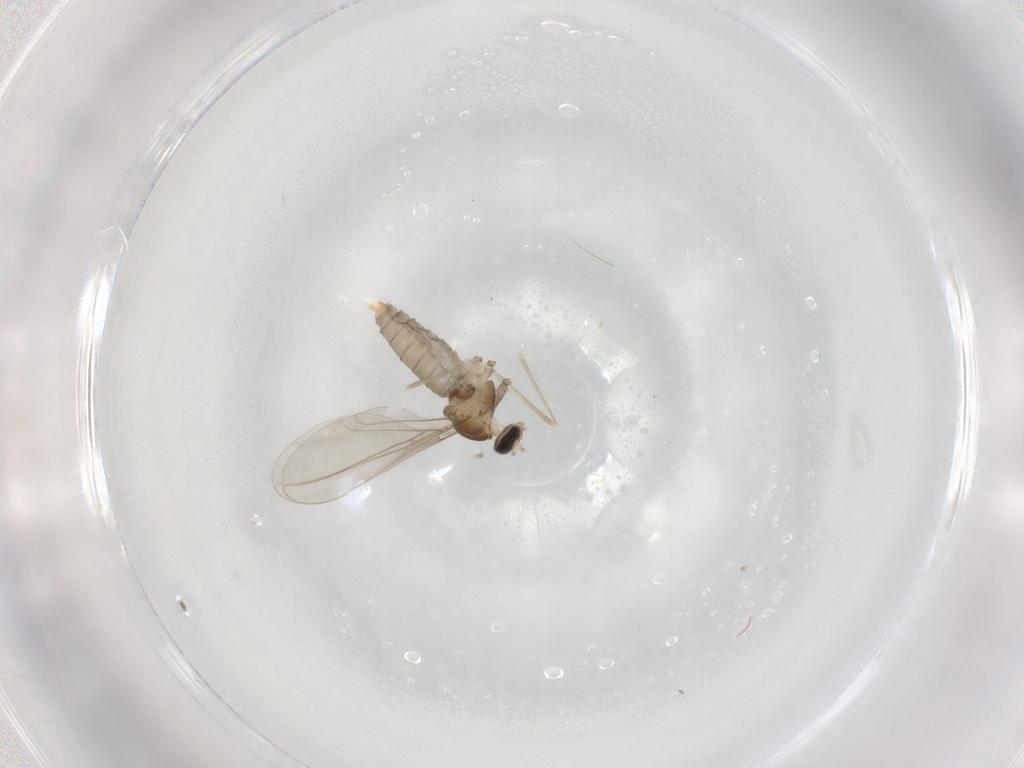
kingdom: Animalia
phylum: Arthropoda
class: Insecta
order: Diptera
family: Cecidomyiidae
